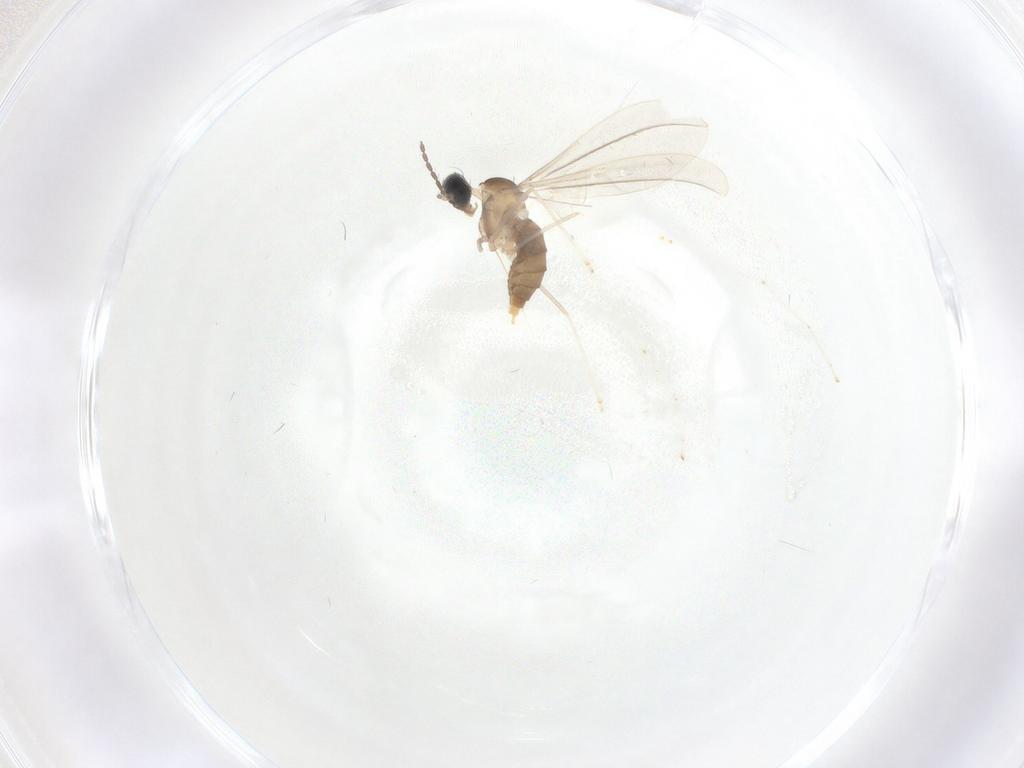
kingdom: Animalia
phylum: Arthropoda
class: Insecta
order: Diptera
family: Cecidomyiidae
